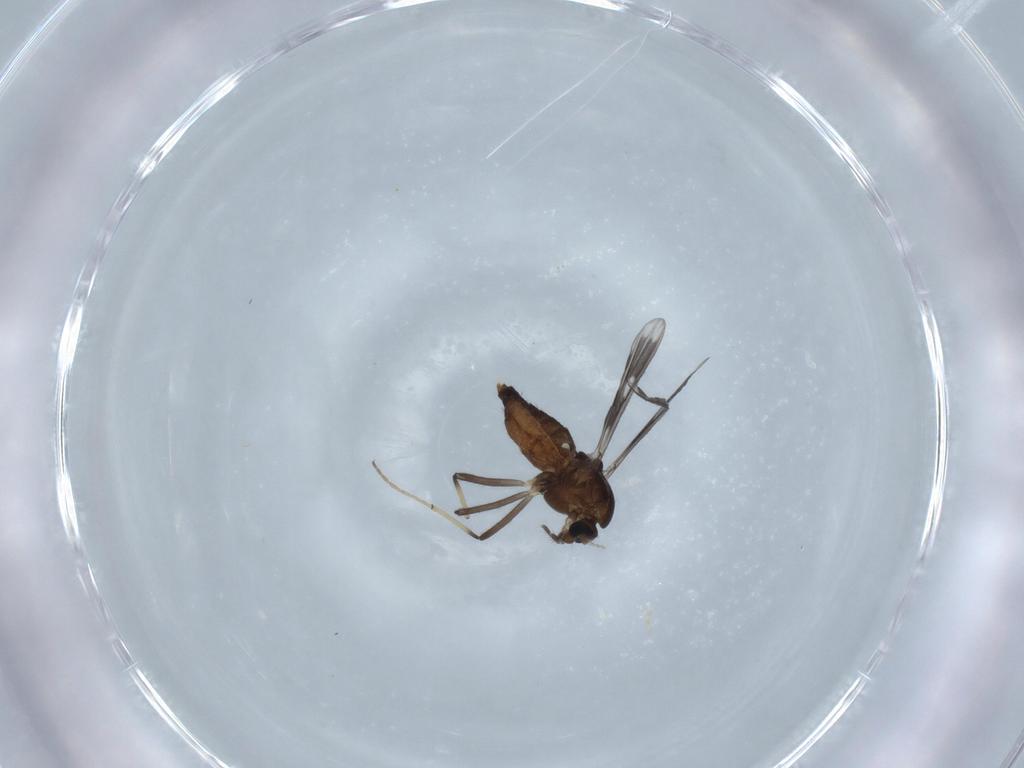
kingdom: Animalia
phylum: Arthropoda
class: Insecta
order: Diptera
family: Chironomidae
